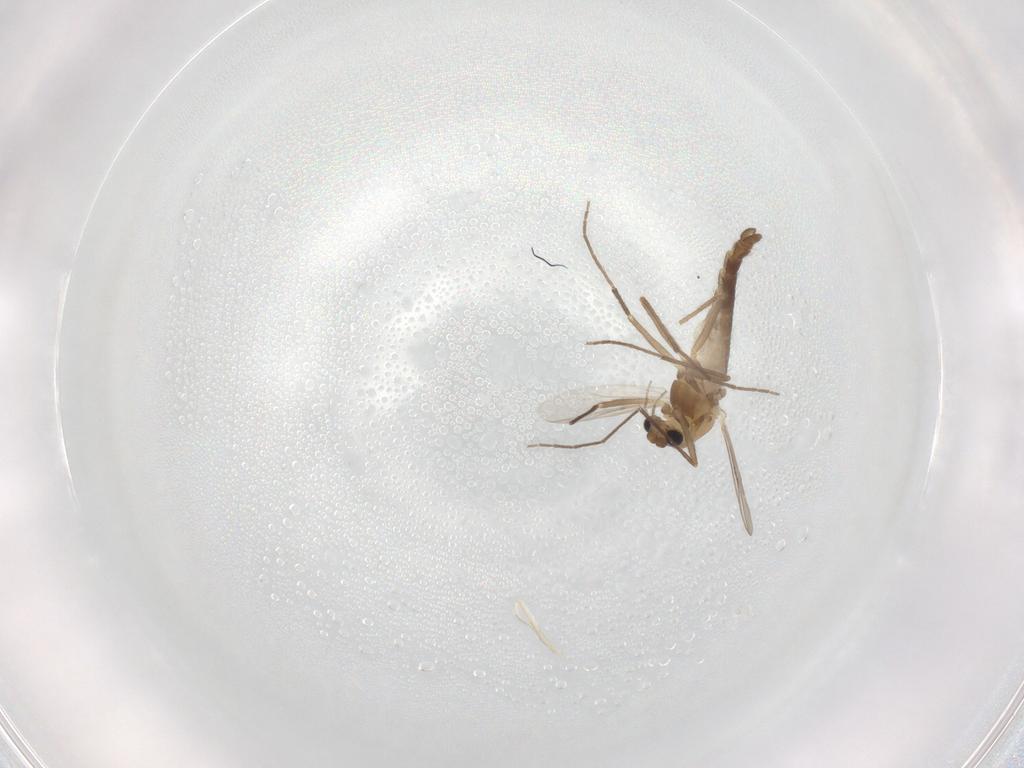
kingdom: Animalia
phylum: Arthropoda
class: Insecta
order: Diptera
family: Chironomidae
